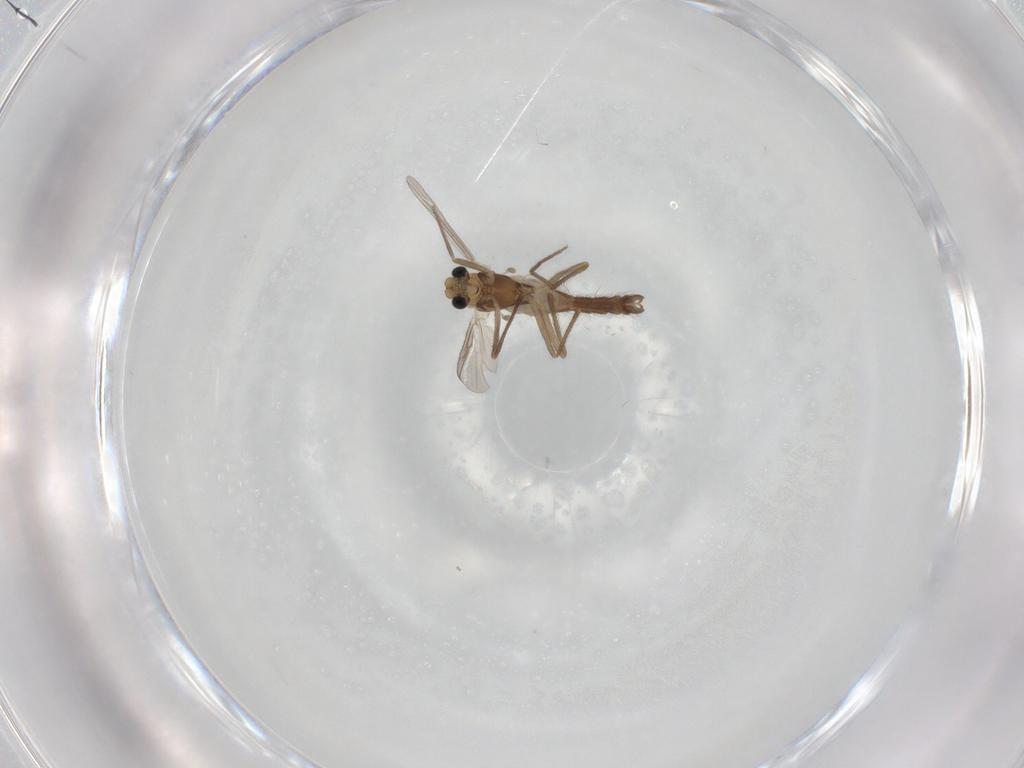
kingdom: Animalia
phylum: Arthropoda
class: Insecta
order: Diptera
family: Chironomidae
